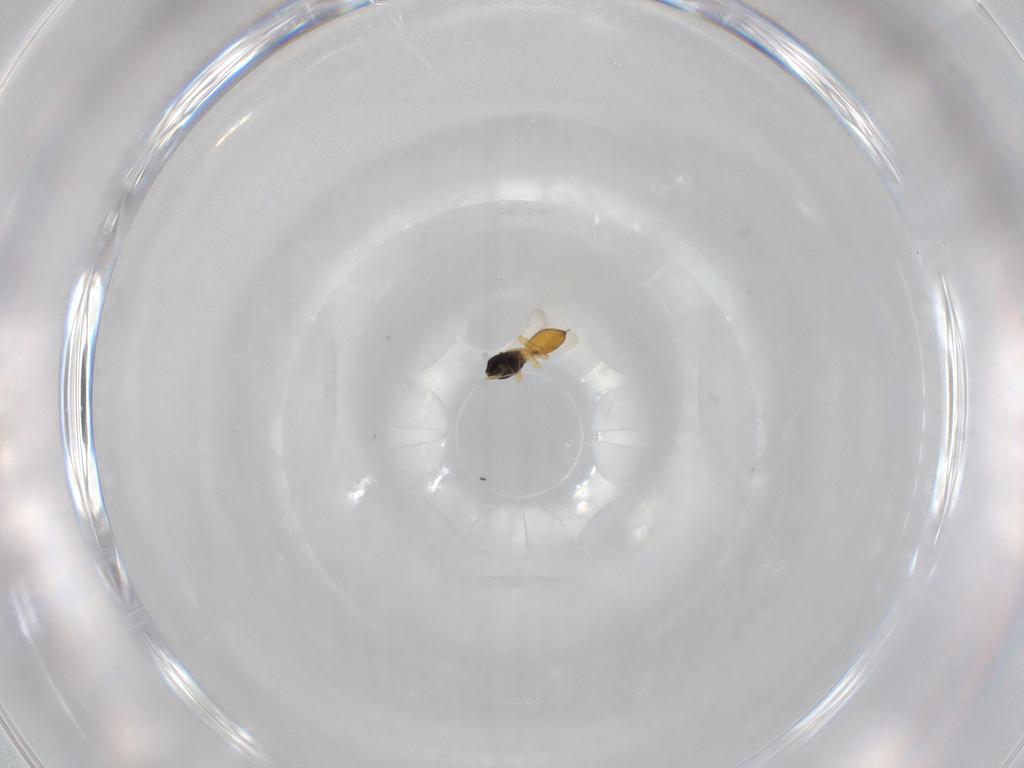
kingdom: Animalia
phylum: Arthropoda
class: Insecta
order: Hymenoptera
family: Scelionidae
